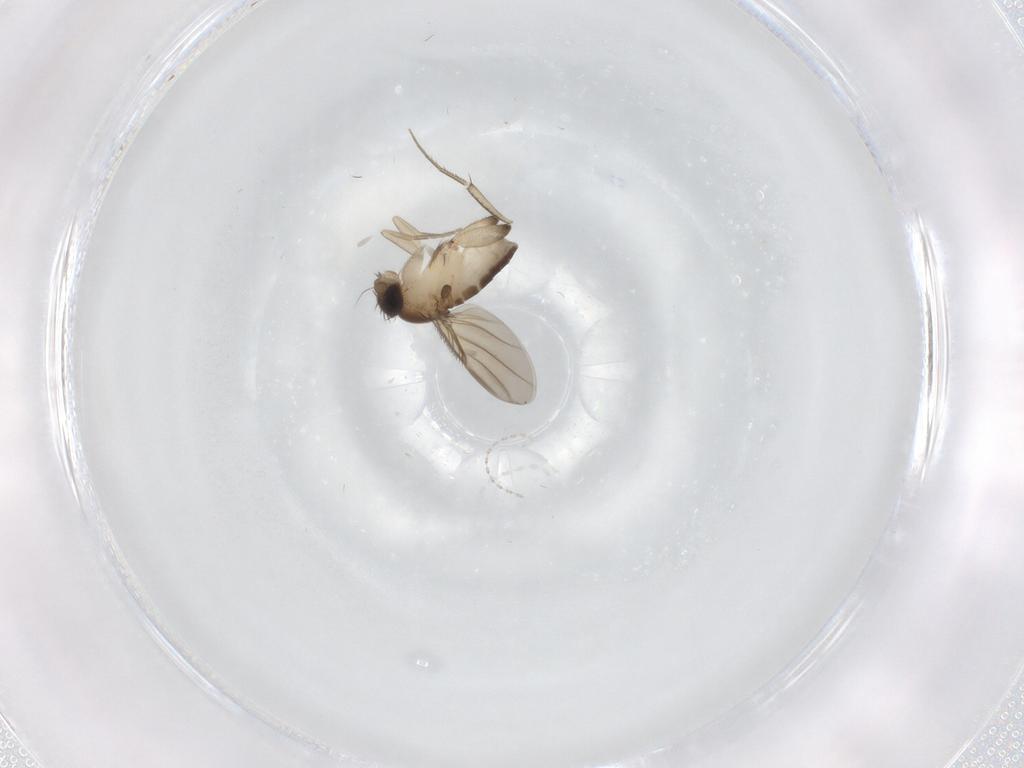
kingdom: Animalia
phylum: Arthropoda
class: Insecta
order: Diptera
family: Phoridae
